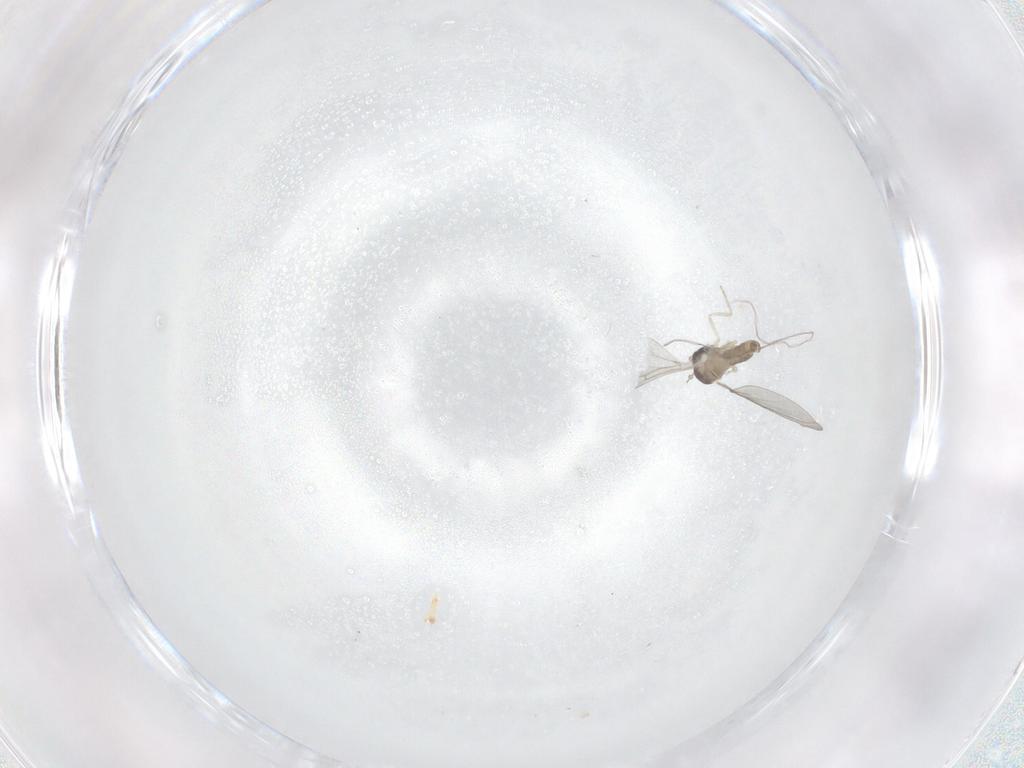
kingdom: Animalia
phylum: Arthropoda
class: Insecta
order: Diptera
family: Cecidomyiidae
